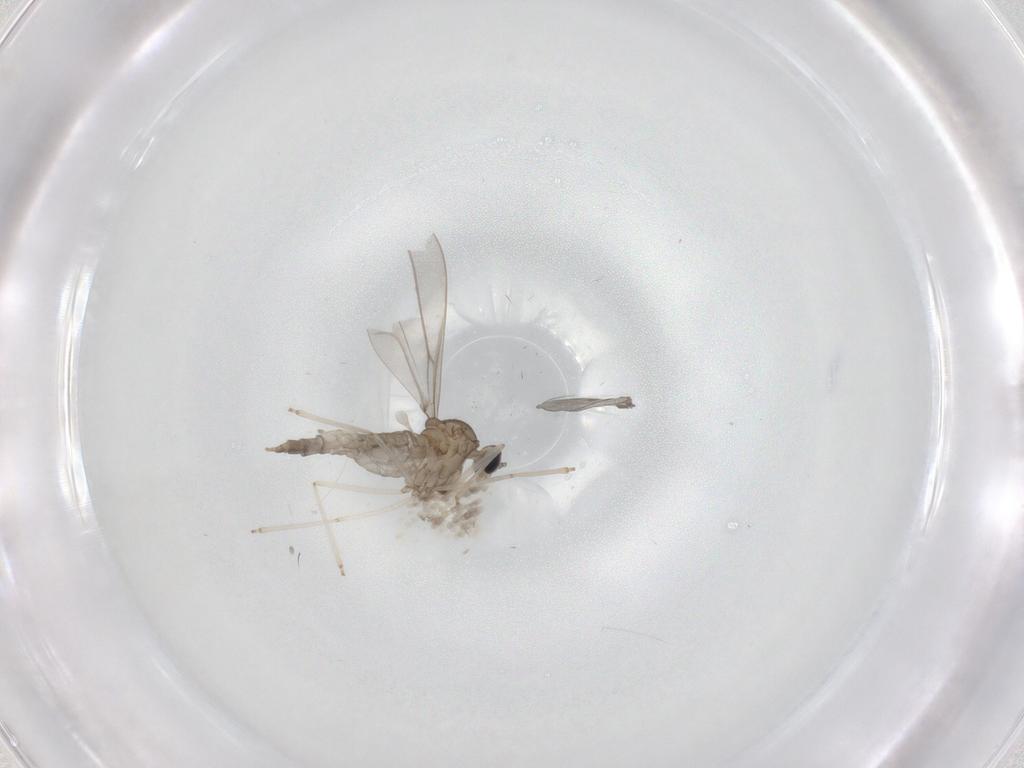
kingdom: Animalia
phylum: Arthropoda
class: Insecta
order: Diptera
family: Cecidomyiidae
